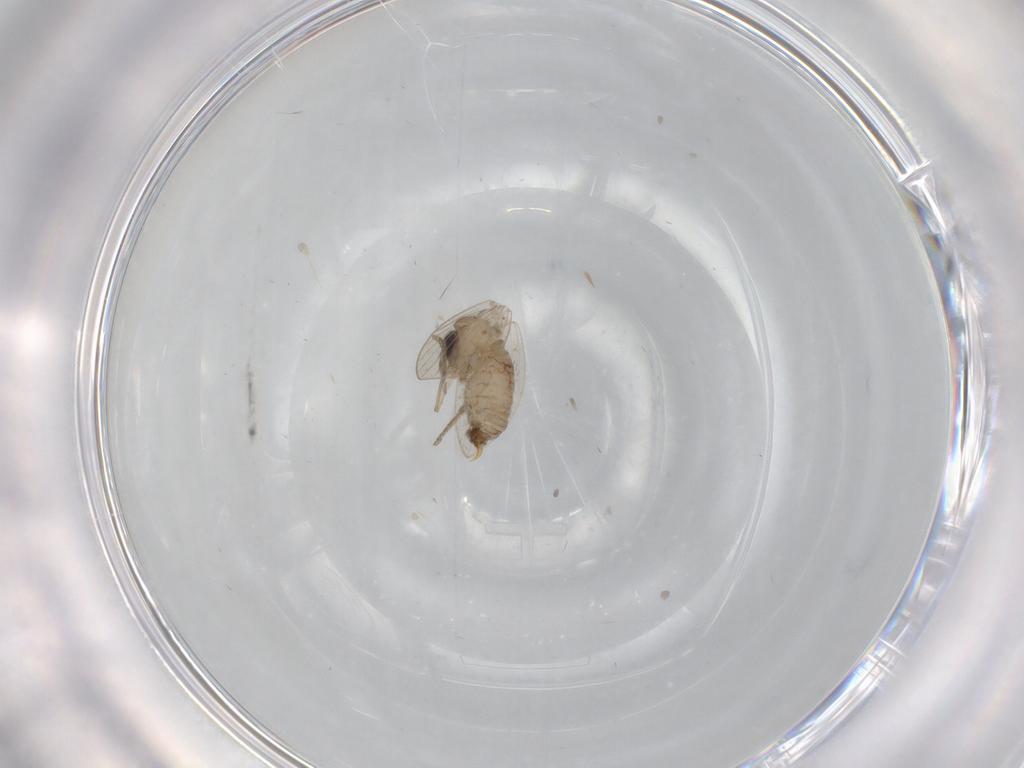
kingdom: Animalia
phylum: Arthropoda
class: Insecta
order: Diptera
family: Psychodidae
